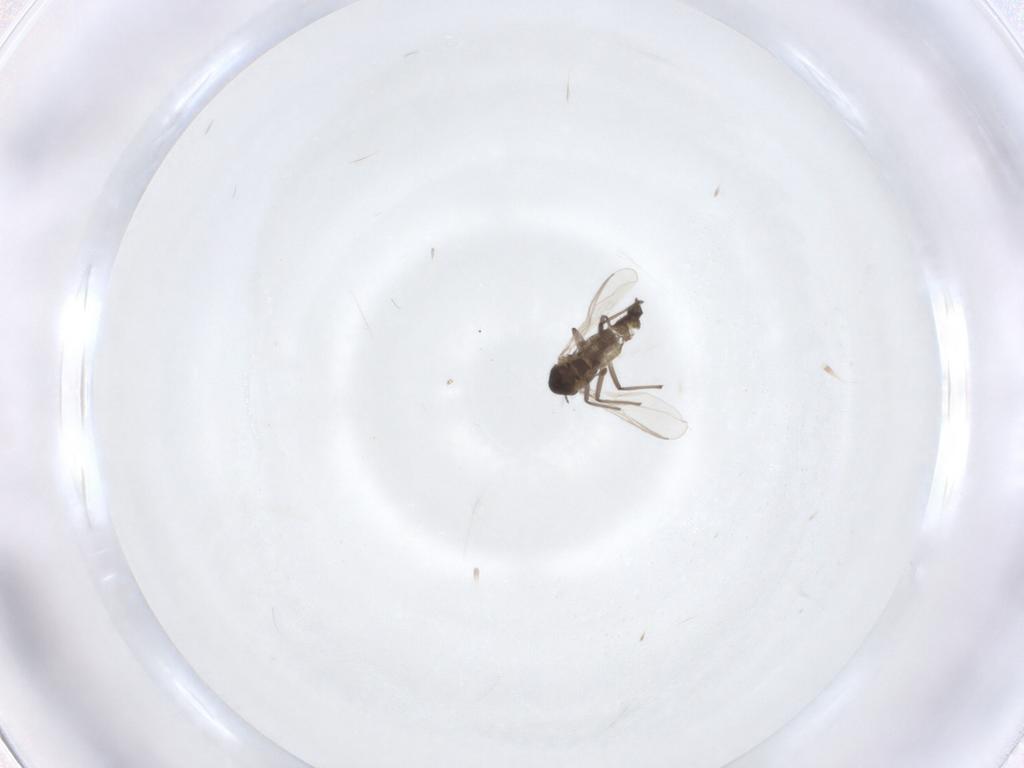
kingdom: Animalia
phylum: Arthropoda
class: Insecta
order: Diptera
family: Chironomidae
